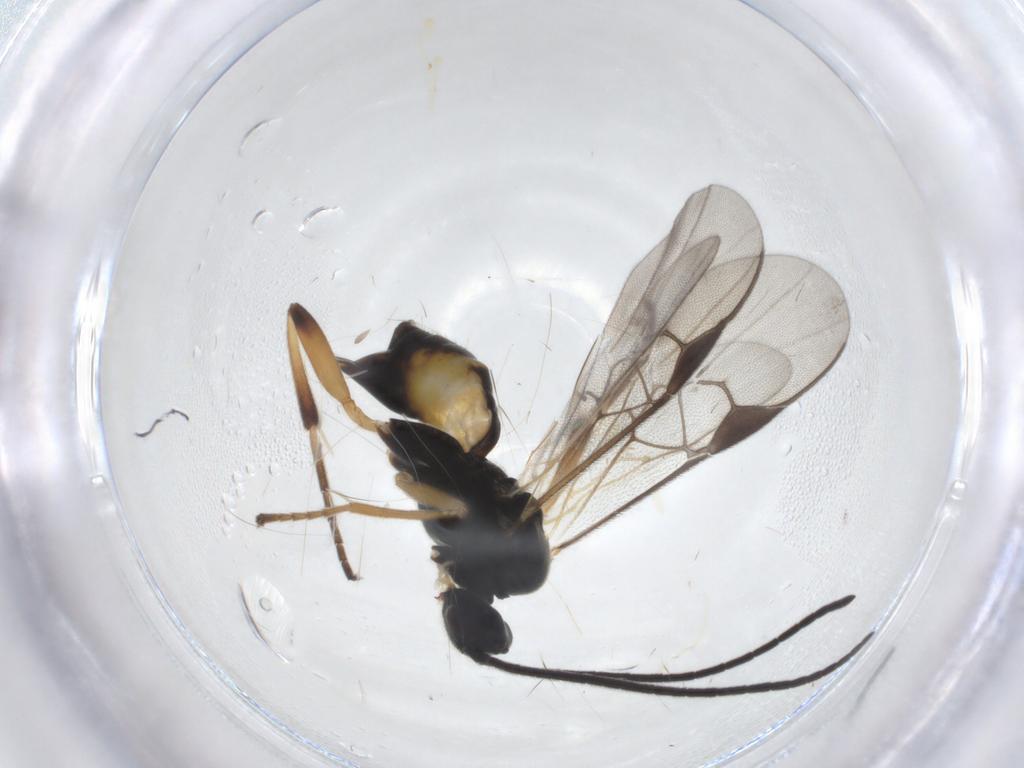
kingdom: Animalia
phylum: Arthropoda
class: Insecta
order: Hymenoptera
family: Braconidae
